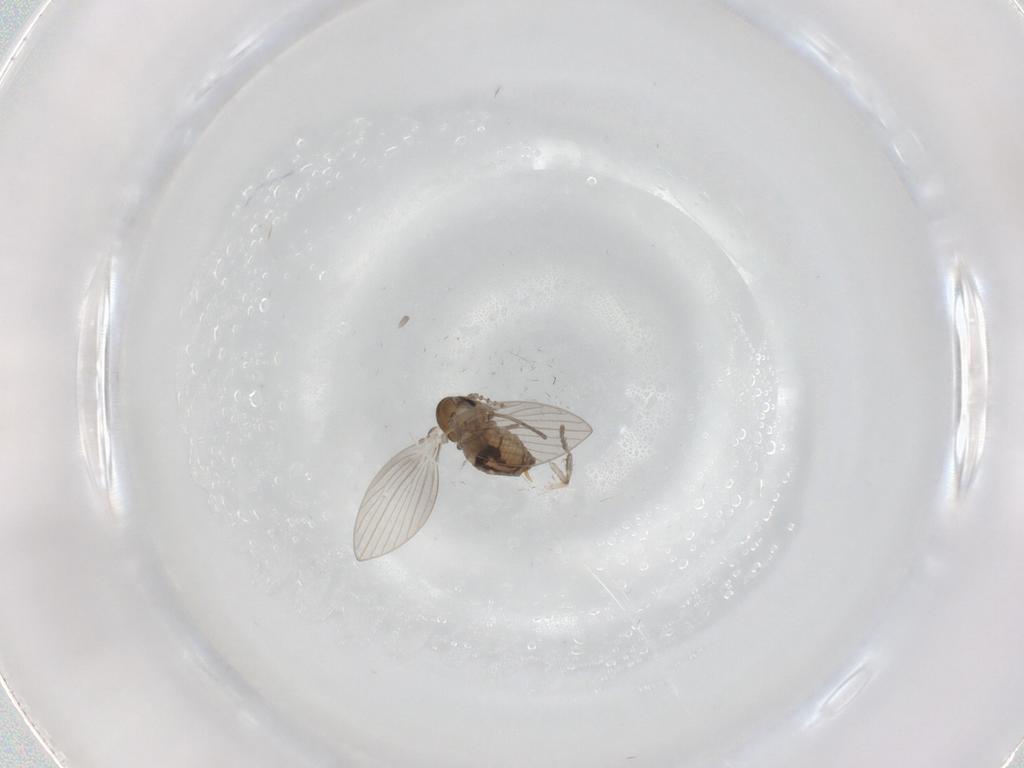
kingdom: Animalia
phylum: Arthropoda
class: Insecta
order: Diptera
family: Psychodidae
